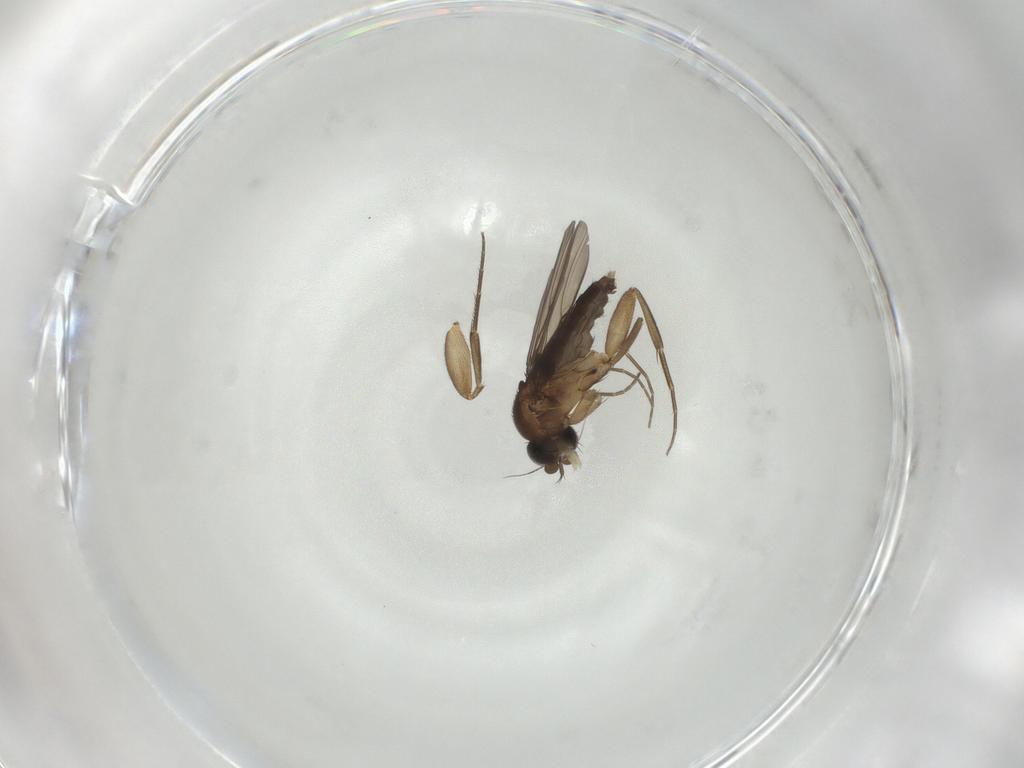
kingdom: Animalia
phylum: Arthropoda
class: Insecta
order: Diptera
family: Phoridae
